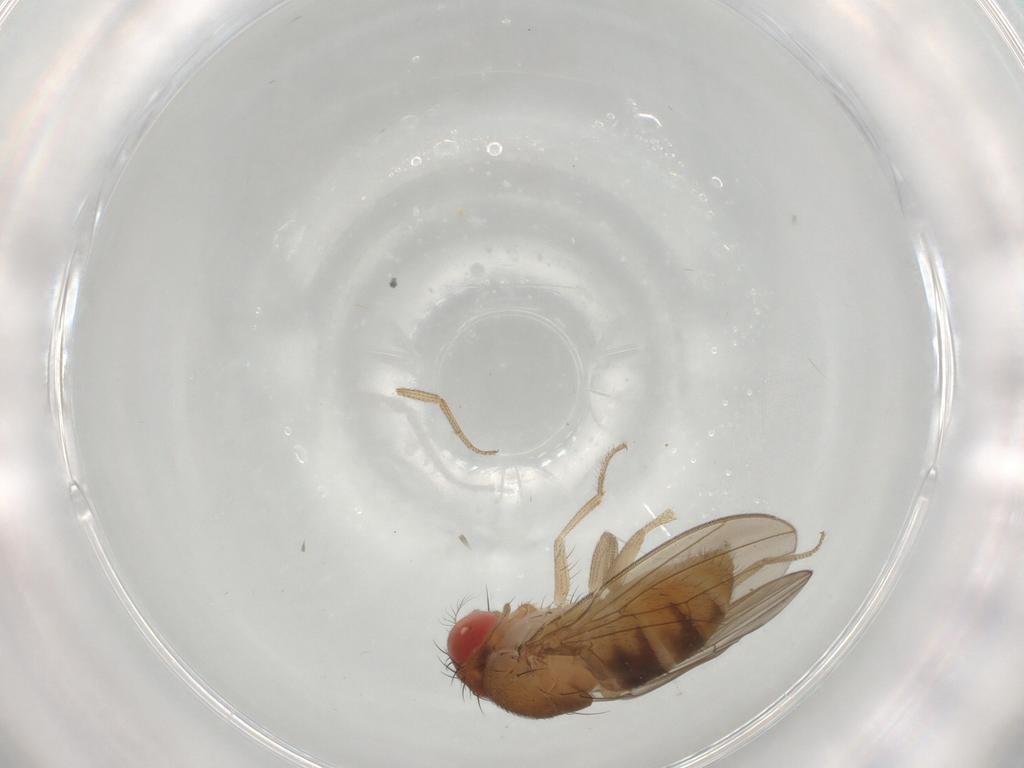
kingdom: Animalia
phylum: Arthropoda
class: Insecta
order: Diptera
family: Drosophilidae
